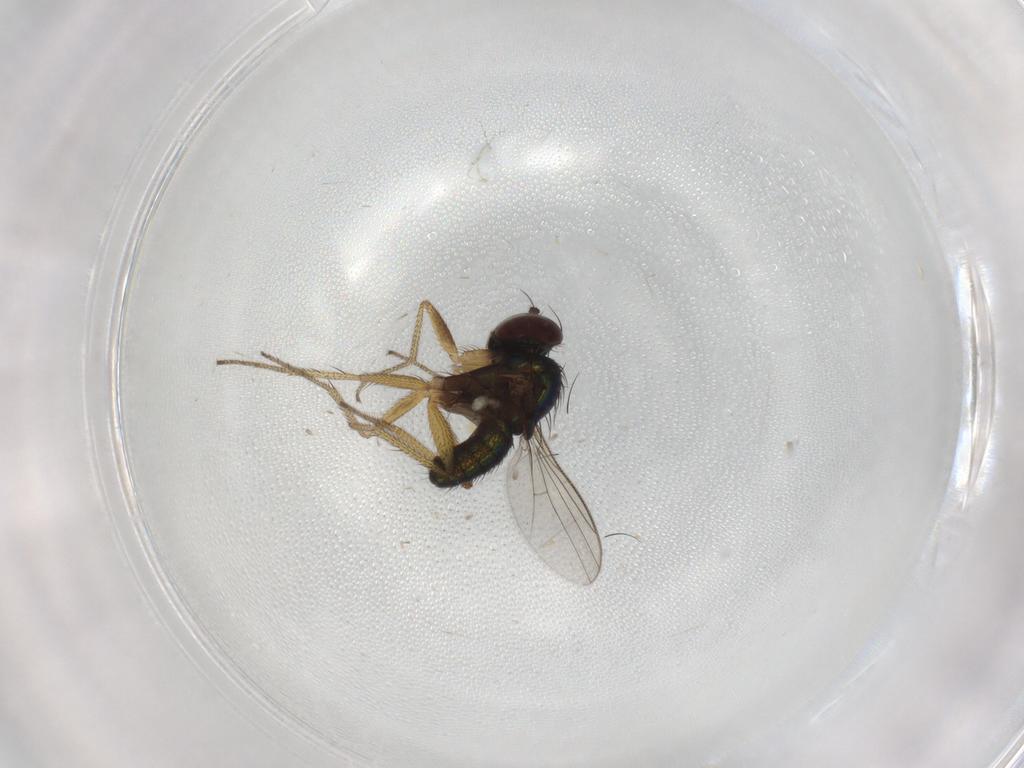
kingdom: Animalia
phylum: Arthropoda
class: Insecta
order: Diptera
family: Dolichopodidae
